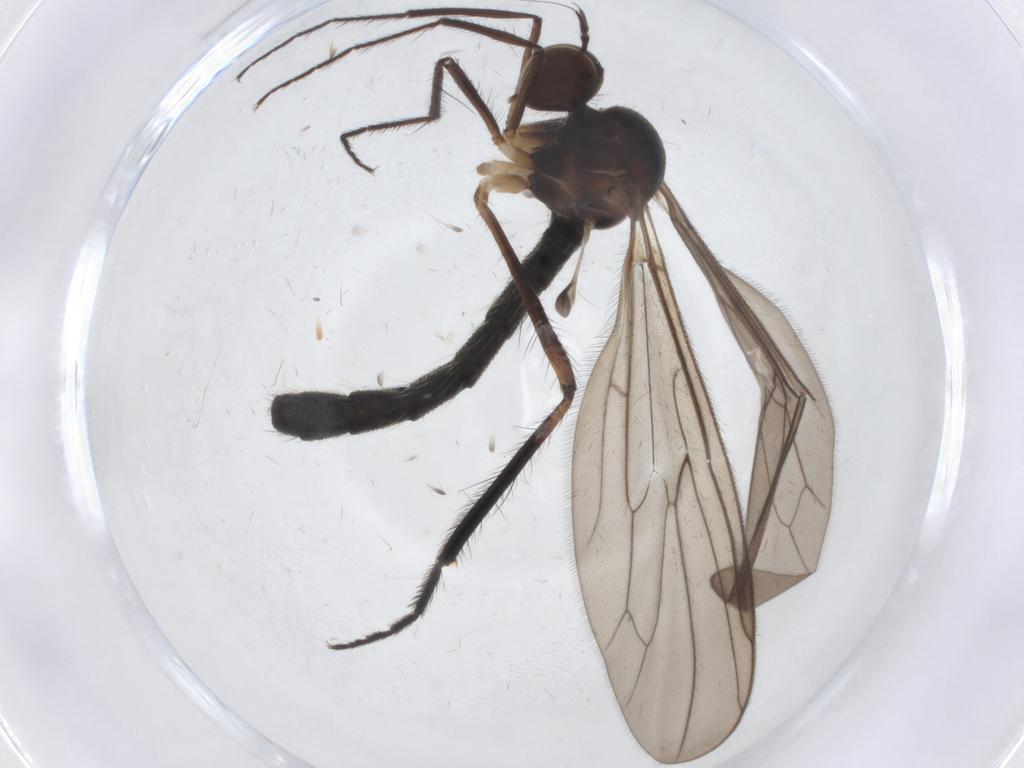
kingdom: Animalia
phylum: Arthropoda
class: Insecta
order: Diptera
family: Hybotidae
